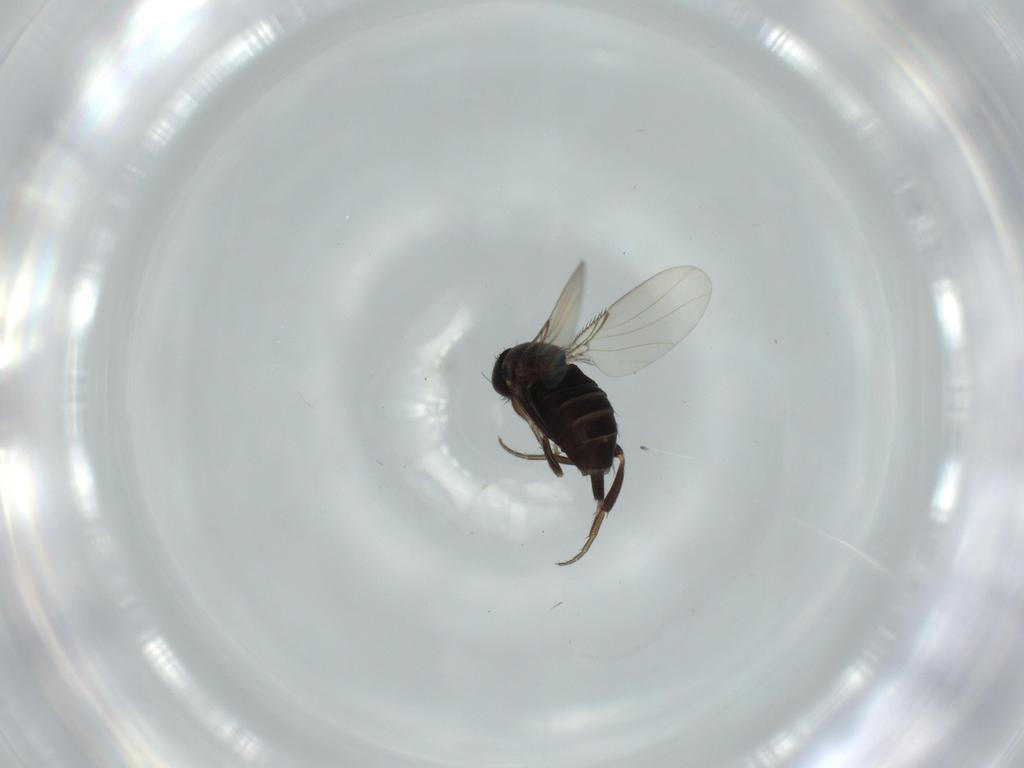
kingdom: Animalia
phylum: Arthropoda
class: Insecta
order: Diptera
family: Phoridae
